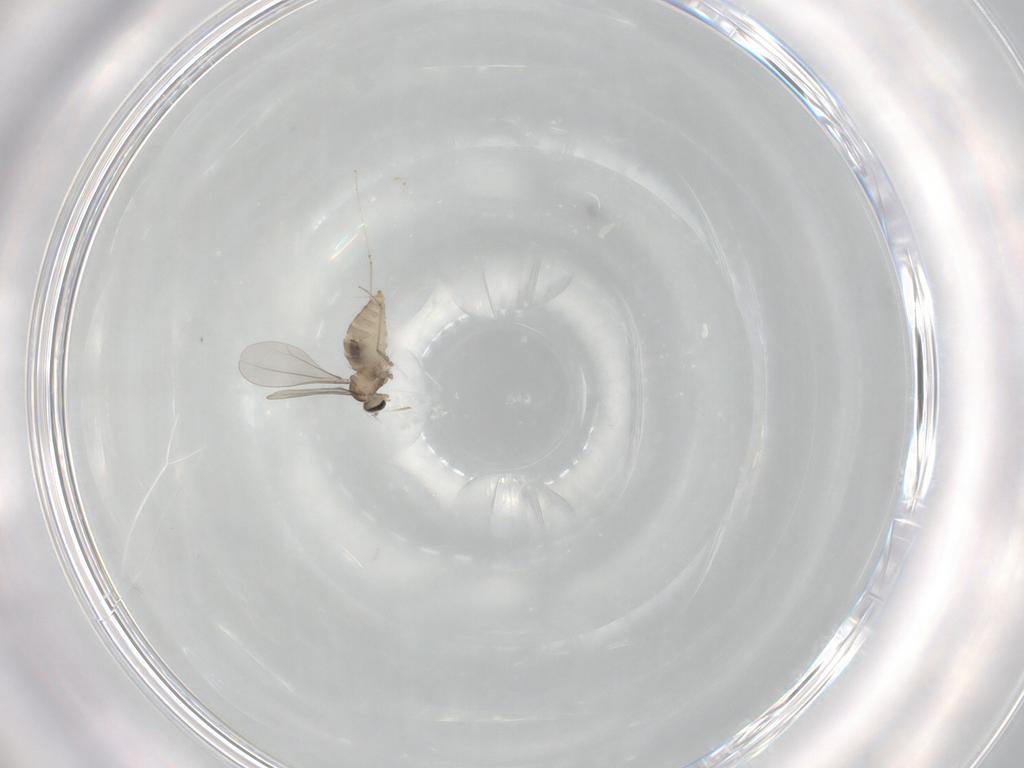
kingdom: Animalia
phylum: Arthropoda
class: Insecta
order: Diptera
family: Cecidomyiidae
